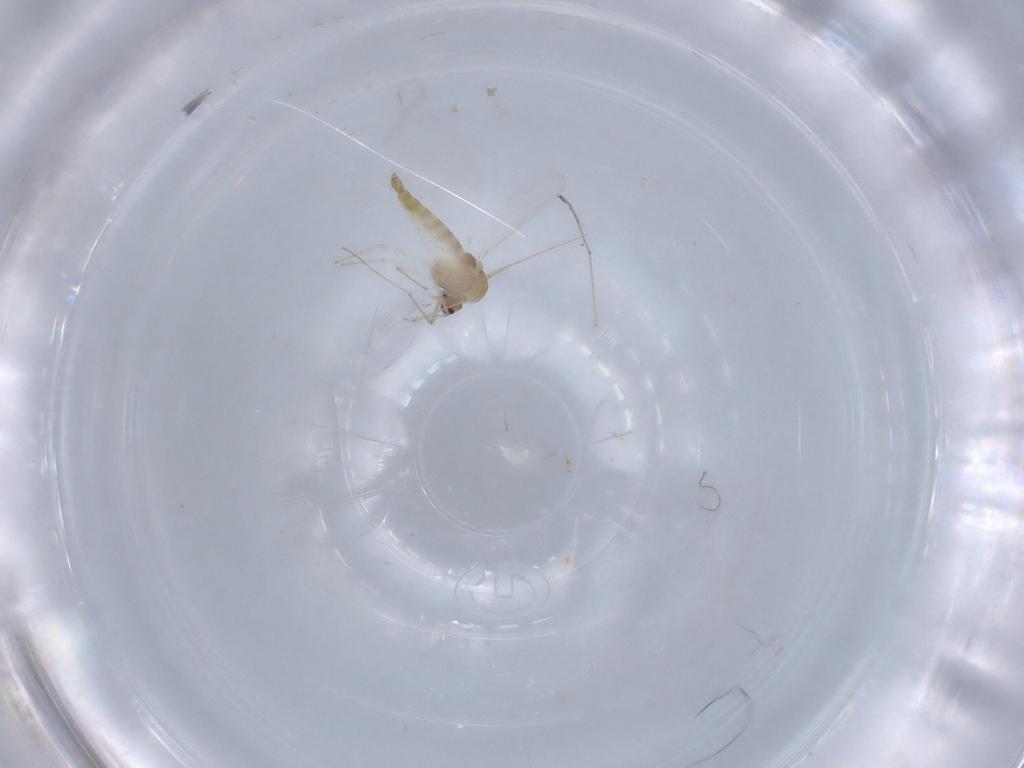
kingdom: Animalia
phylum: Arthropoda
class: Insecta
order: Diptera
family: Chironomidae
